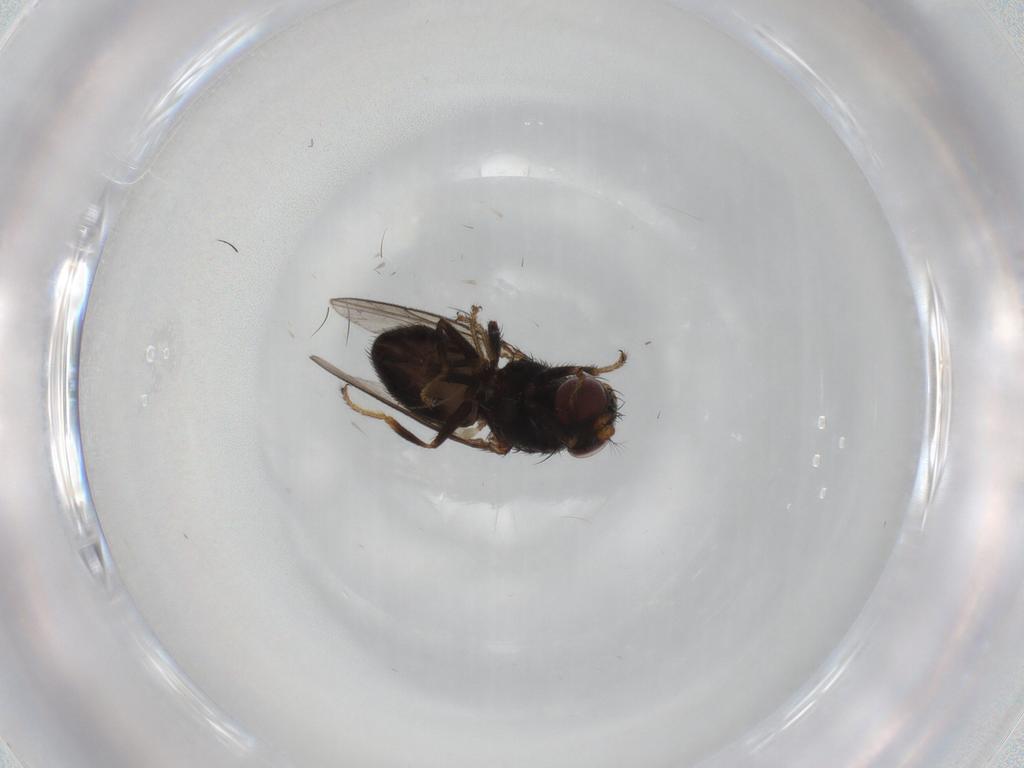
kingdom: Animalia
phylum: Arthropoda
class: Insecta
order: Diptera
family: Ephydridae
